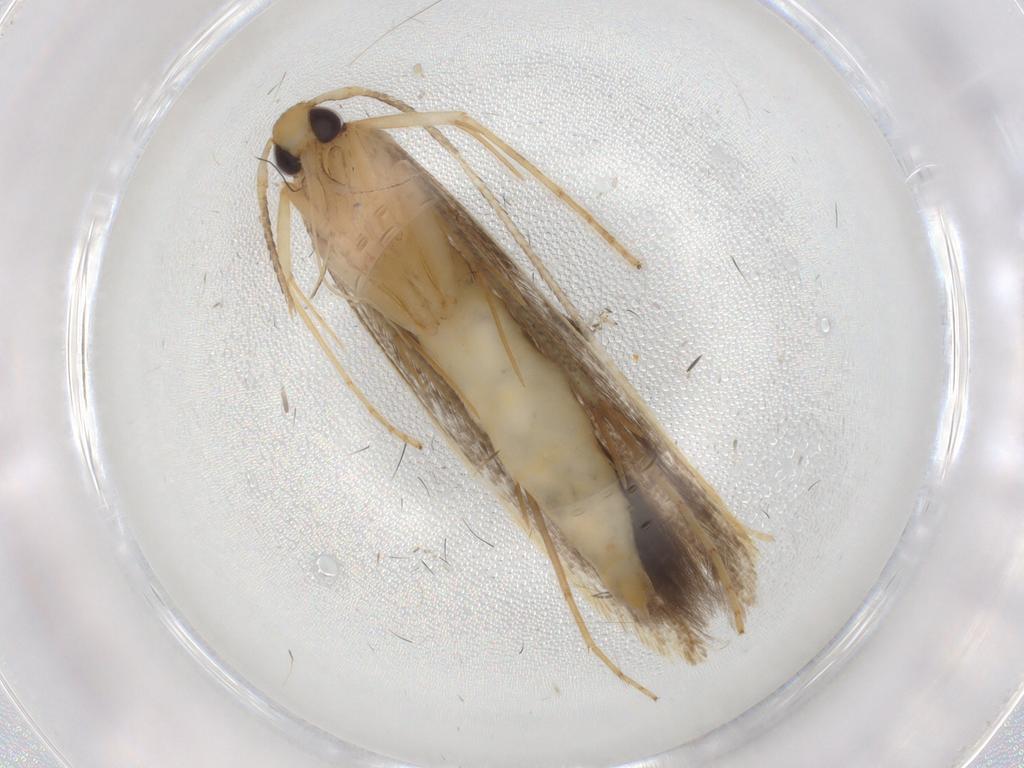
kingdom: Animalia
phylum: Arthropoda
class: Insecta
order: Lepidoptera
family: Pterolonchidae
